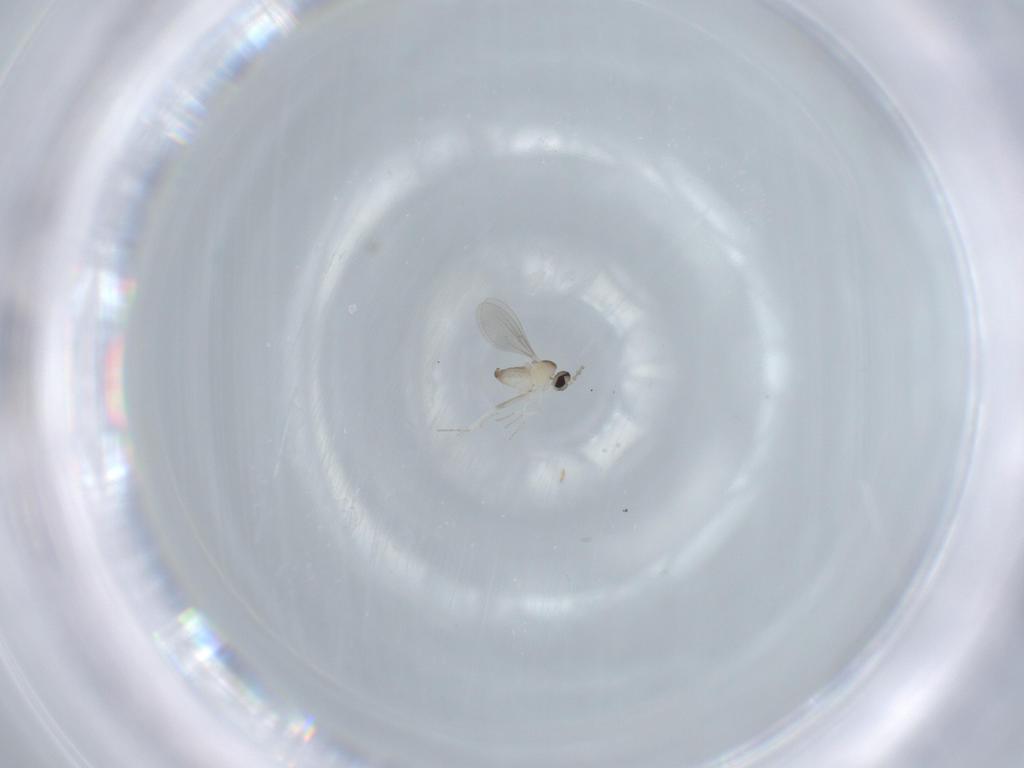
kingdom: Animalia
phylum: Arthropoda
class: Insecta
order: Diptera
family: Cecidomyiidae
